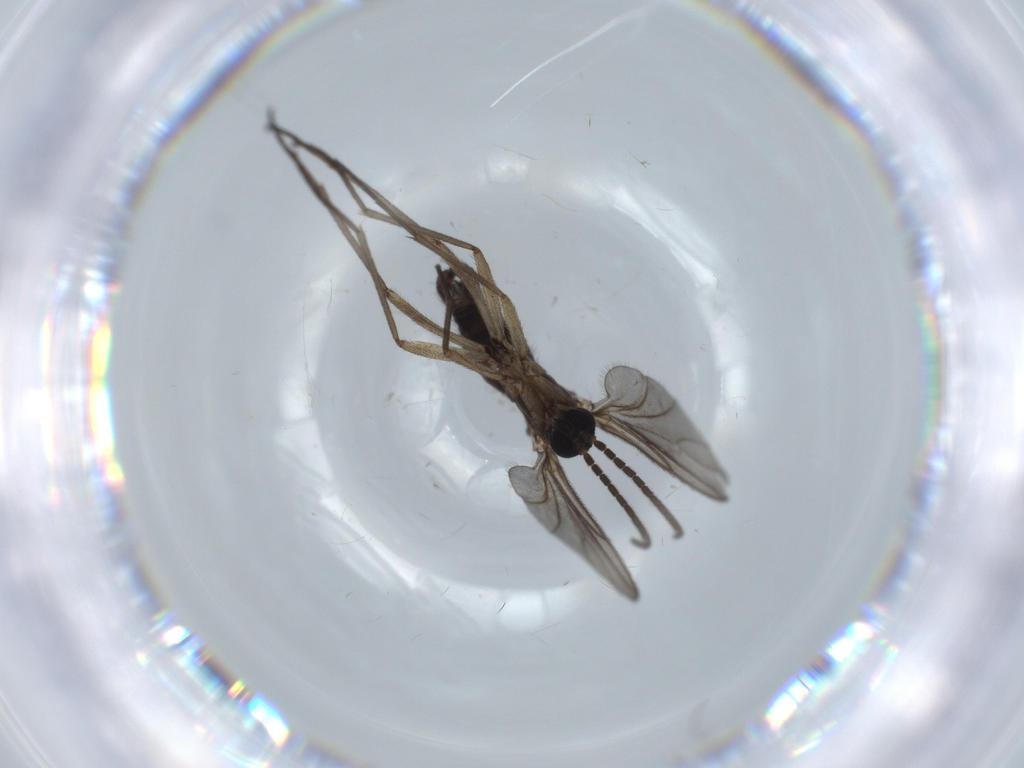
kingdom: Animalia
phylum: Arthropoda
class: Insecta
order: Diptera
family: Sciaridae
